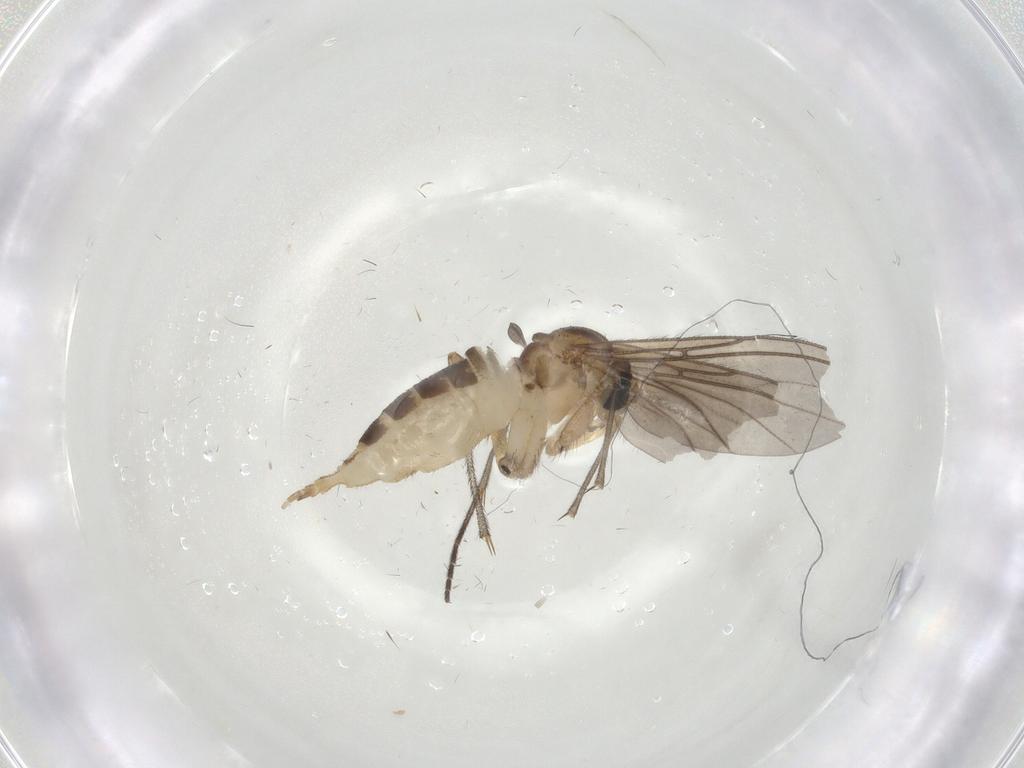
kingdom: Animalia
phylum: Arthropoda
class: Insecta
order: Diptera
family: Sciaridae
